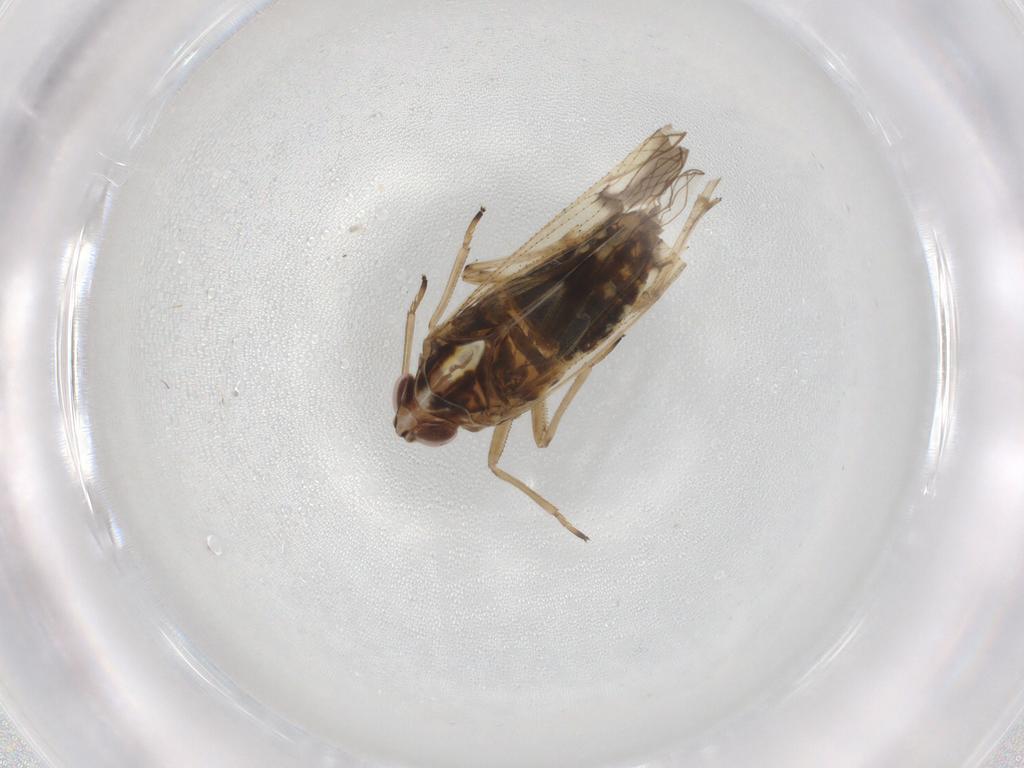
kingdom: Animalia
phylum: Arthropoda
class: Insecta
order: Hemiptera
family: Delphacidae
